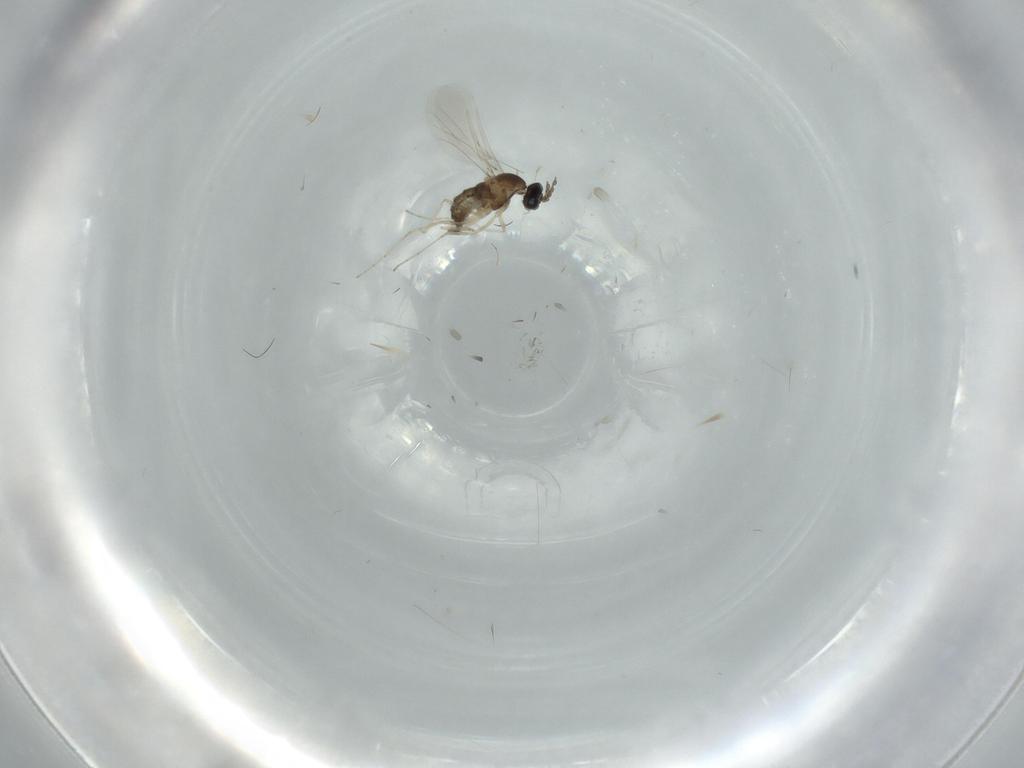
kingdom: Animalia
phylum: Arthropoda
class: Insecta
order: Diptera
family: Cecidomyiidae
